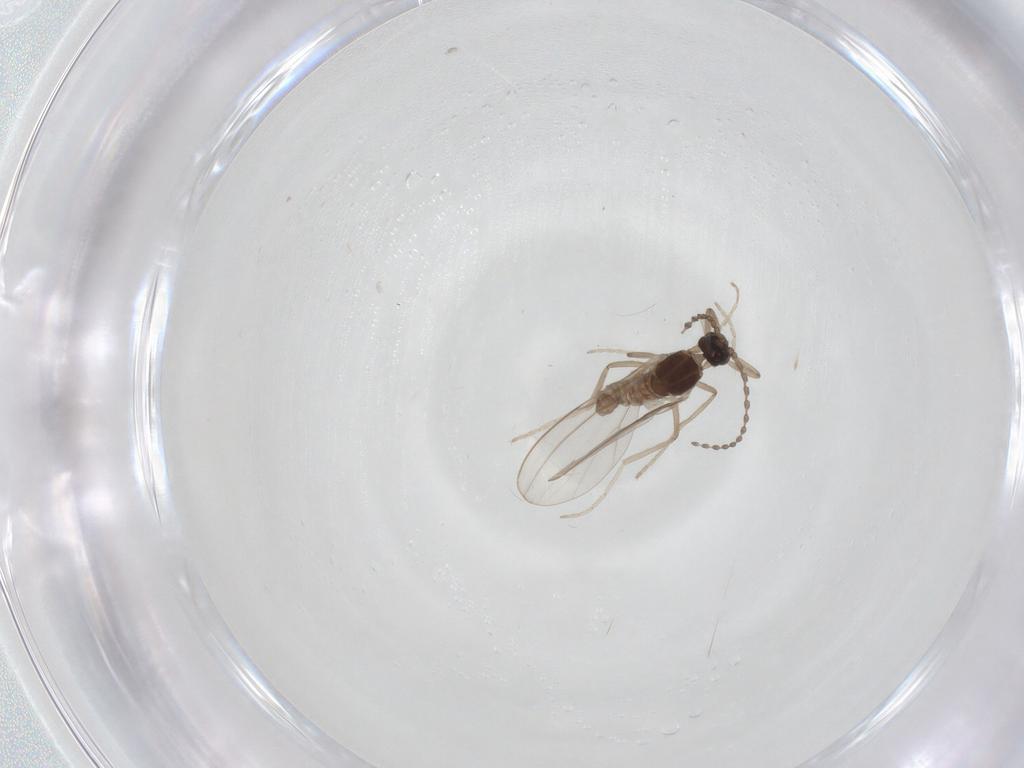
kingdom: Animalia
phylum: Arthropoda
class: Insecta
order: Diptera
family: Cecidomyiidae
